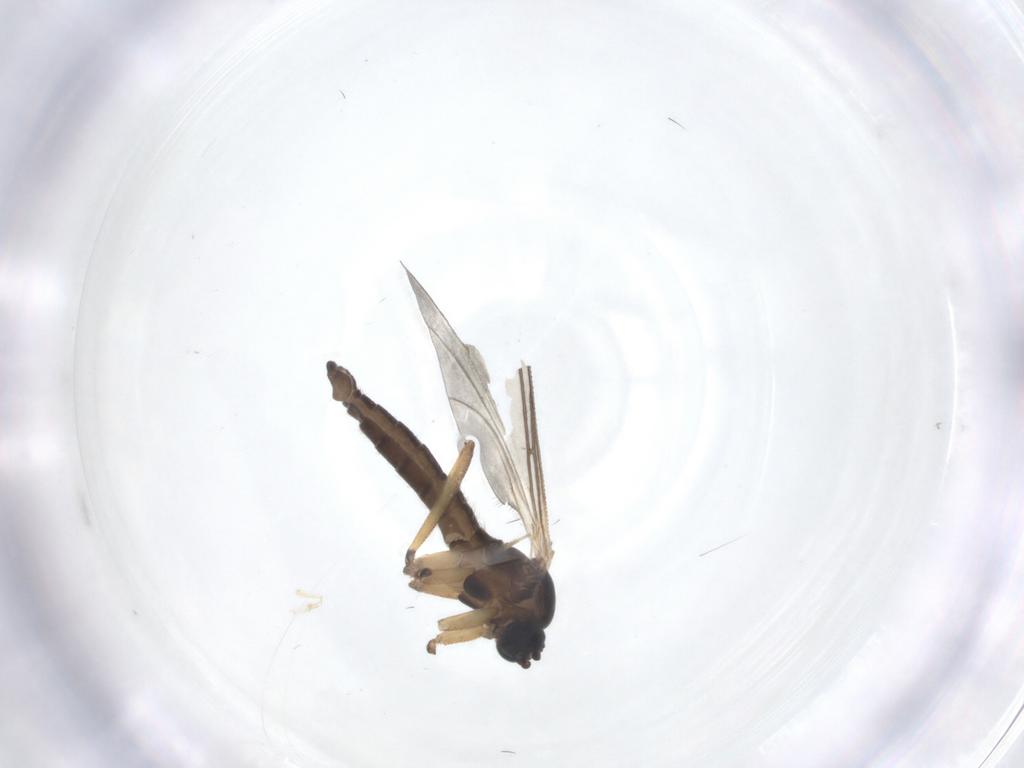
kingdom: Animalia
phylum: Arthropoda
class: Insecta
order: Diptera
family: Sciaridae
